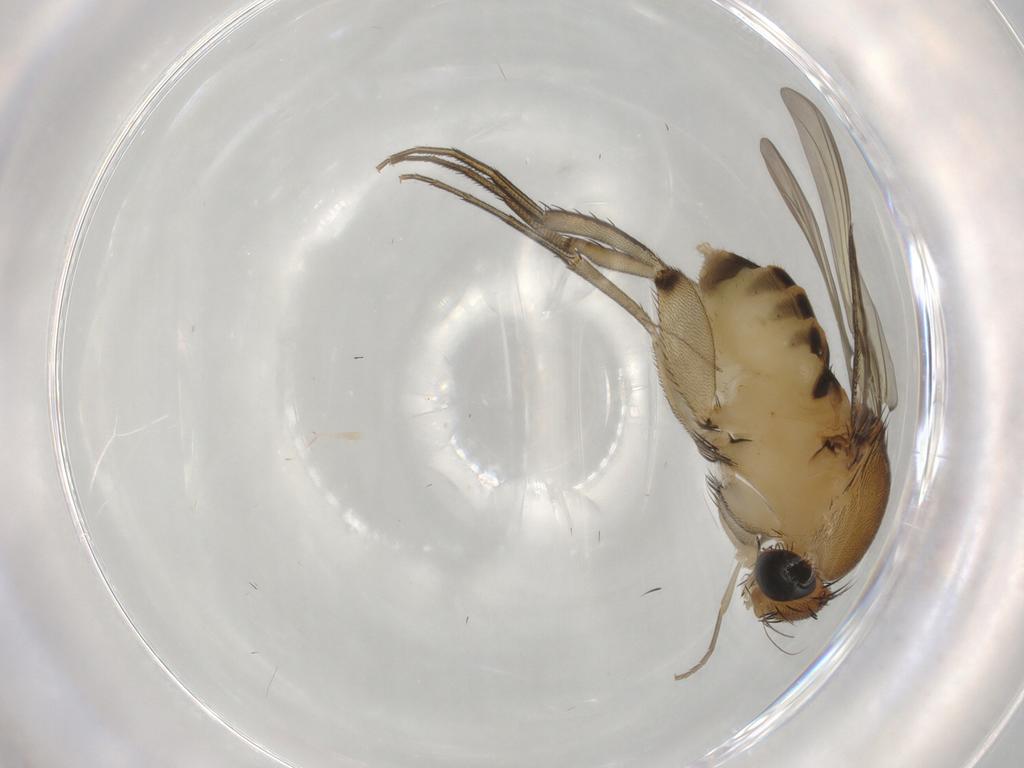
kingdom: Animalia
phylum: Arthropoda
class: Insecta
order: Diptera
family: Phoridae
